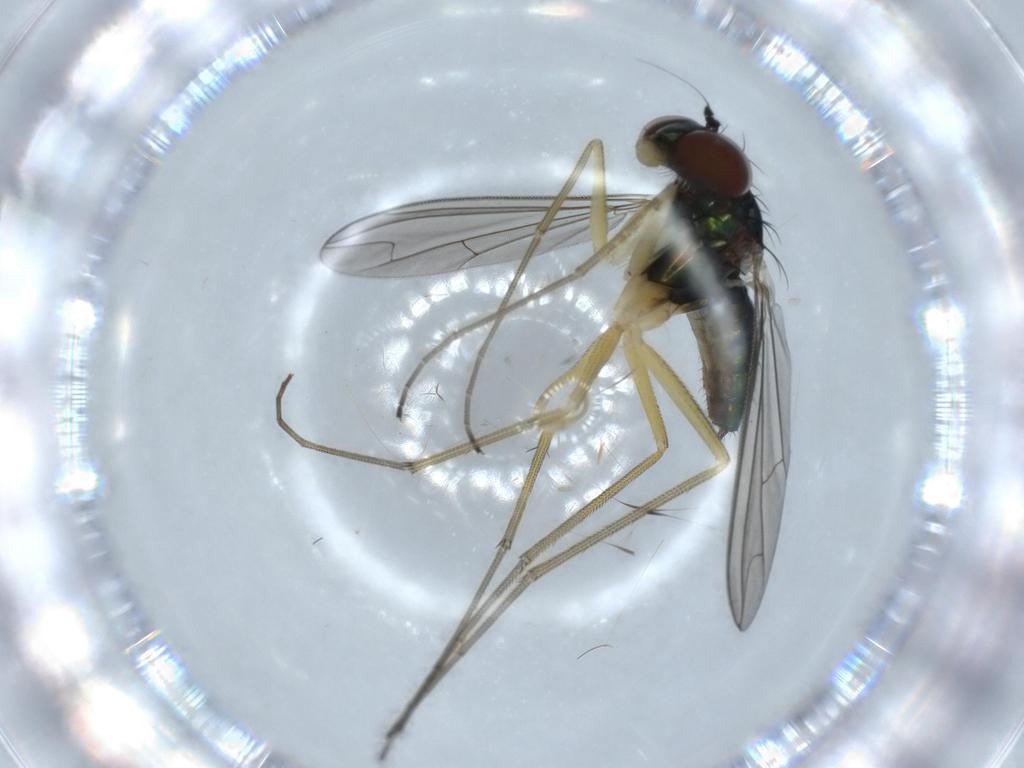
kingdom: Animalia
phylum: Arthropoda
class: Insecta
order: Diptera
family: Dolichopodidae
